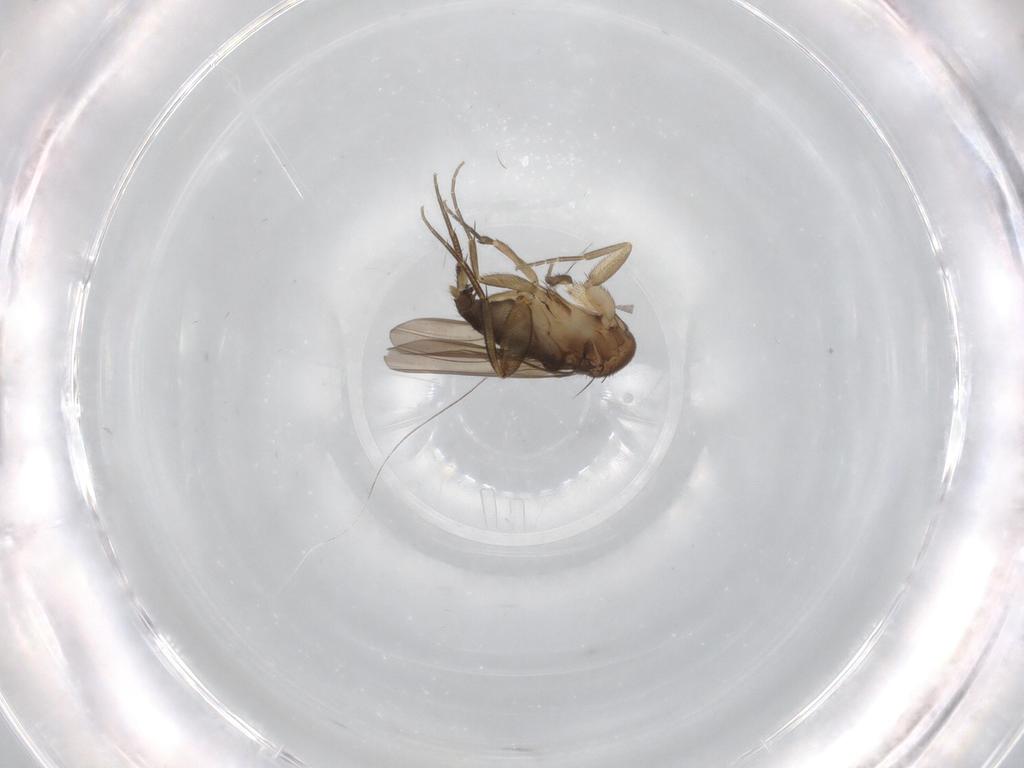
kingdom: Animalia
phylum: Arthropoda
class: Insecta
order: Diptera
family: Phoridae
